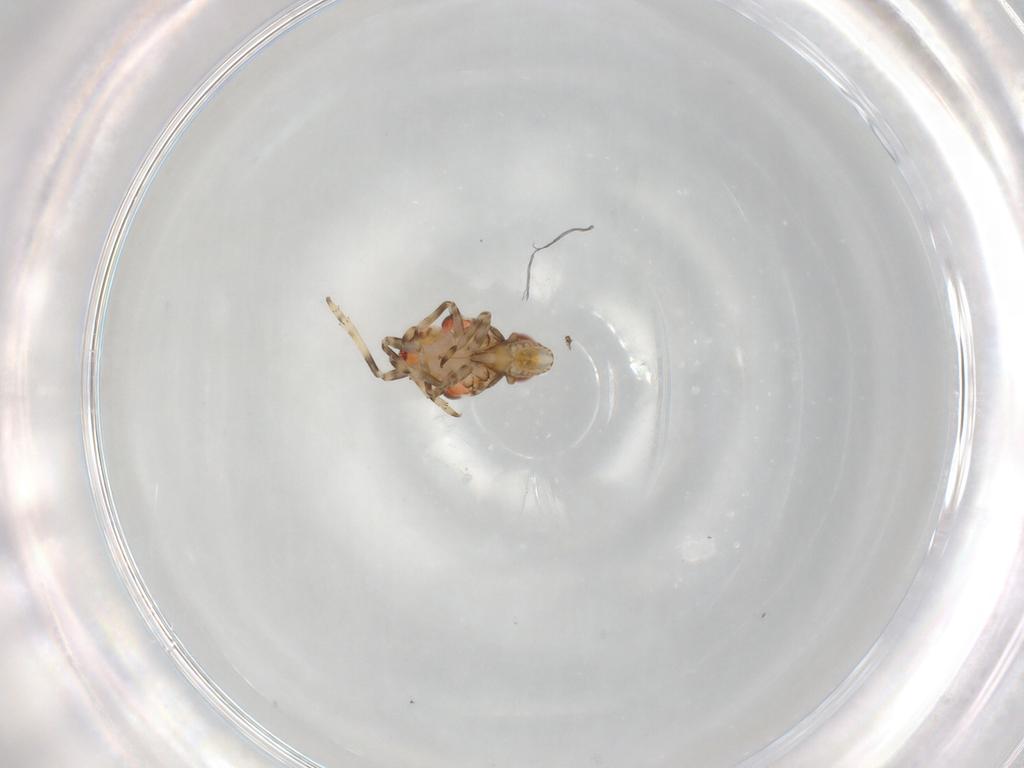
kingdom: Animalia
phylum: Arthropoda
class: Insecta
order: Hemiptera
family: Tropiduchidae
